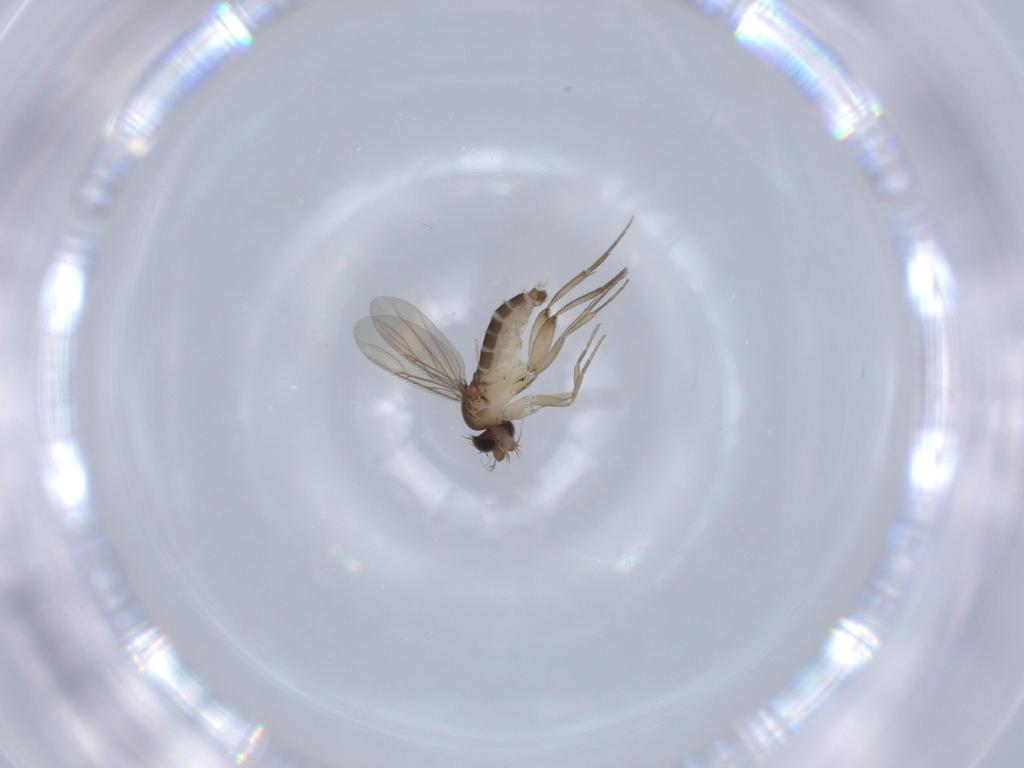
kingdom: Animalia
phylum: Arthropoda
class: Insecta
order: Diptera
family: Phoridae
